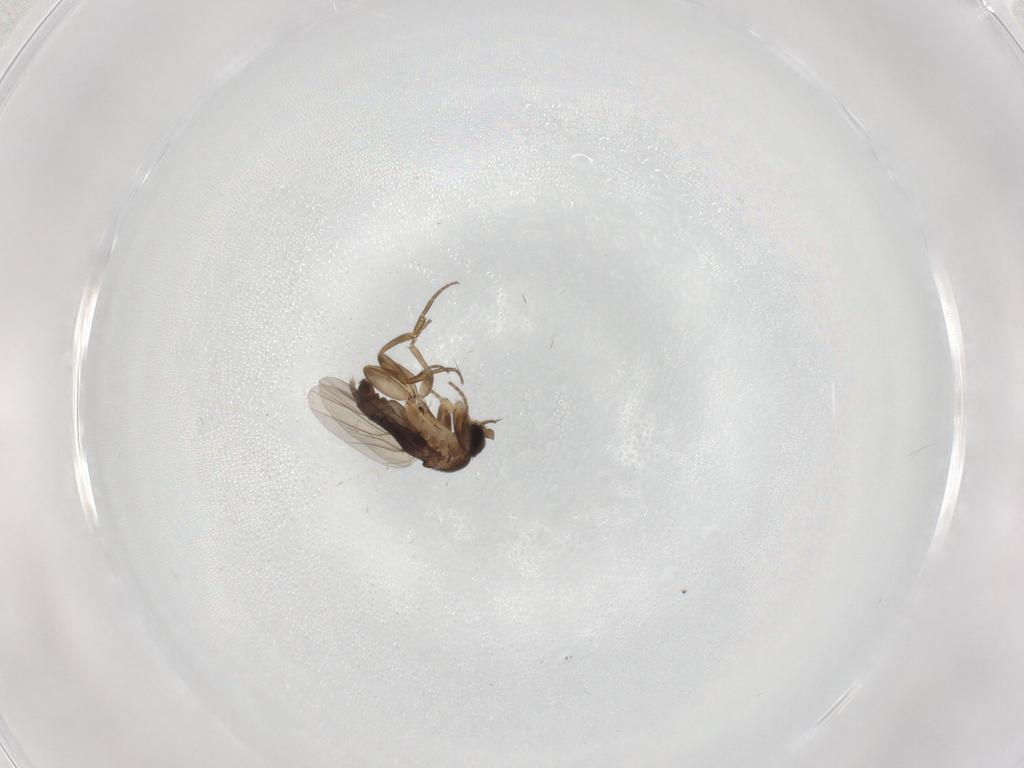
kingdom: Animalia
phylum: Arthropoda
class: Insecta
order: Diptera
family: Phoridae
